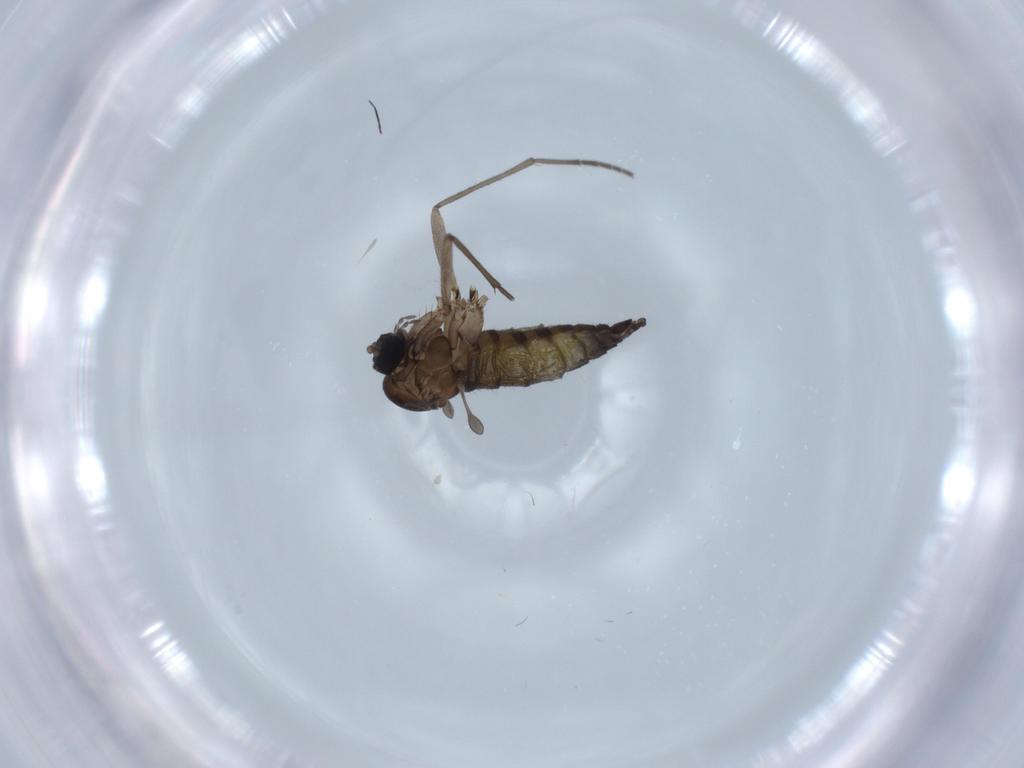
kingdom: Animalia
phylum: Arthropoda
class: Insecta
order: Diptera
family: Sciaridae
